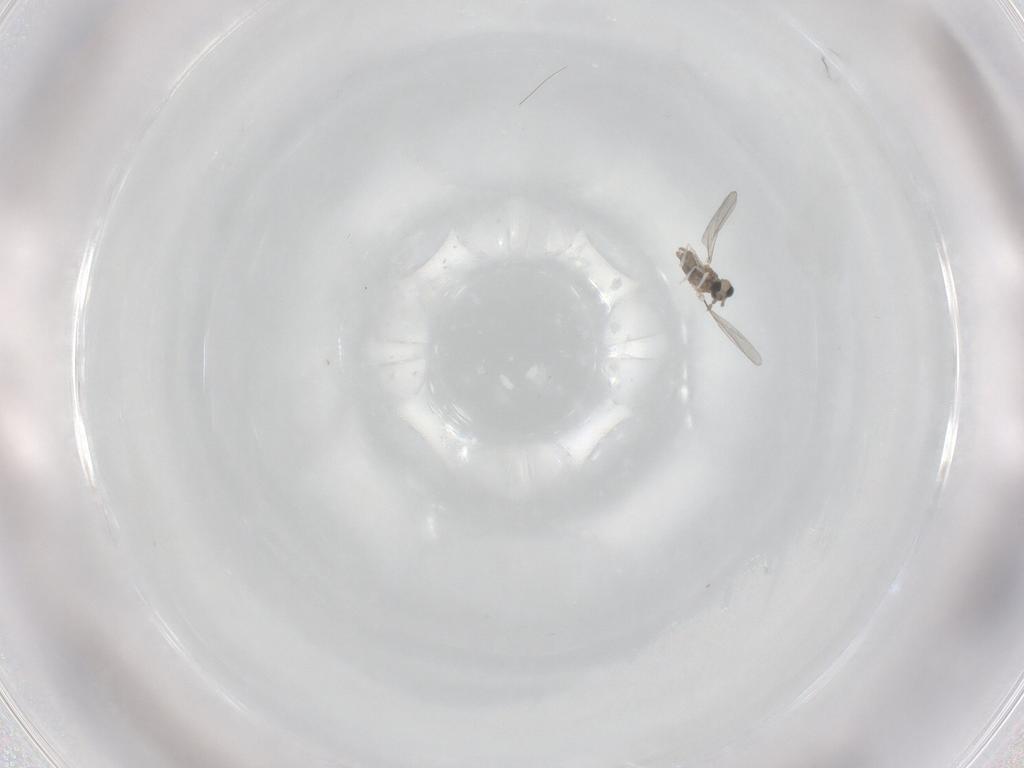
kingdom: Animalia
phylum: Arthropoda
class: Insecta
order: Diptera
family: Cecidomyiidae
